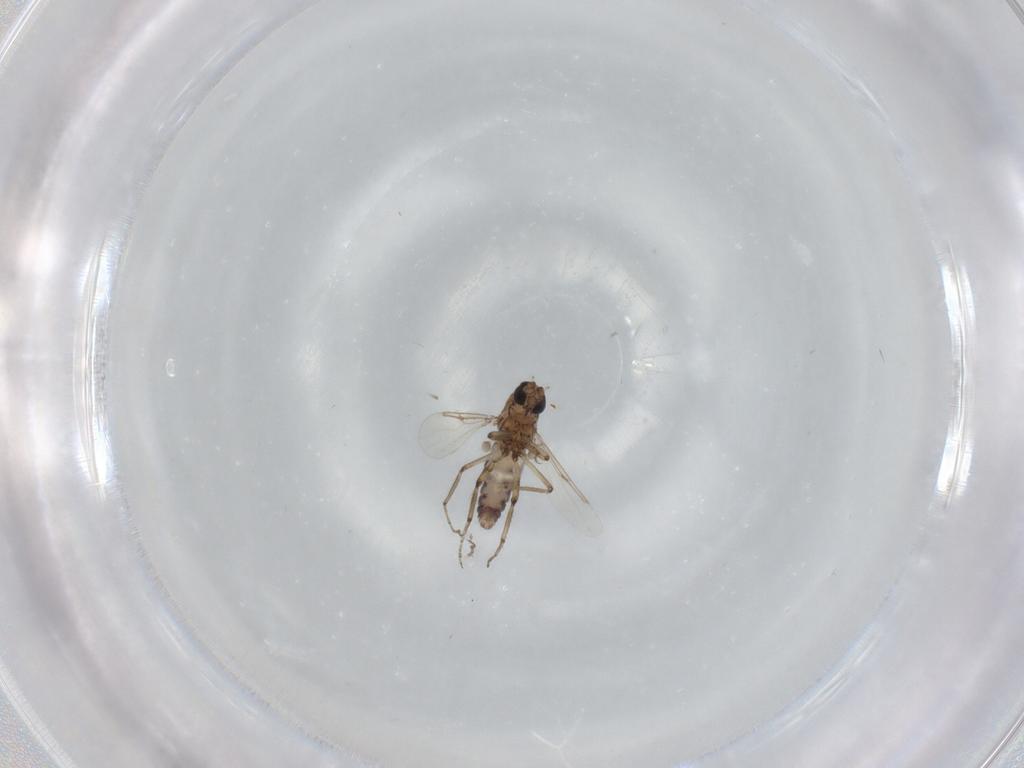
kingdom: Animalia
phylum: Arthropoda
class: Insecta
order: Diptera
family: Ceratopogonidae
